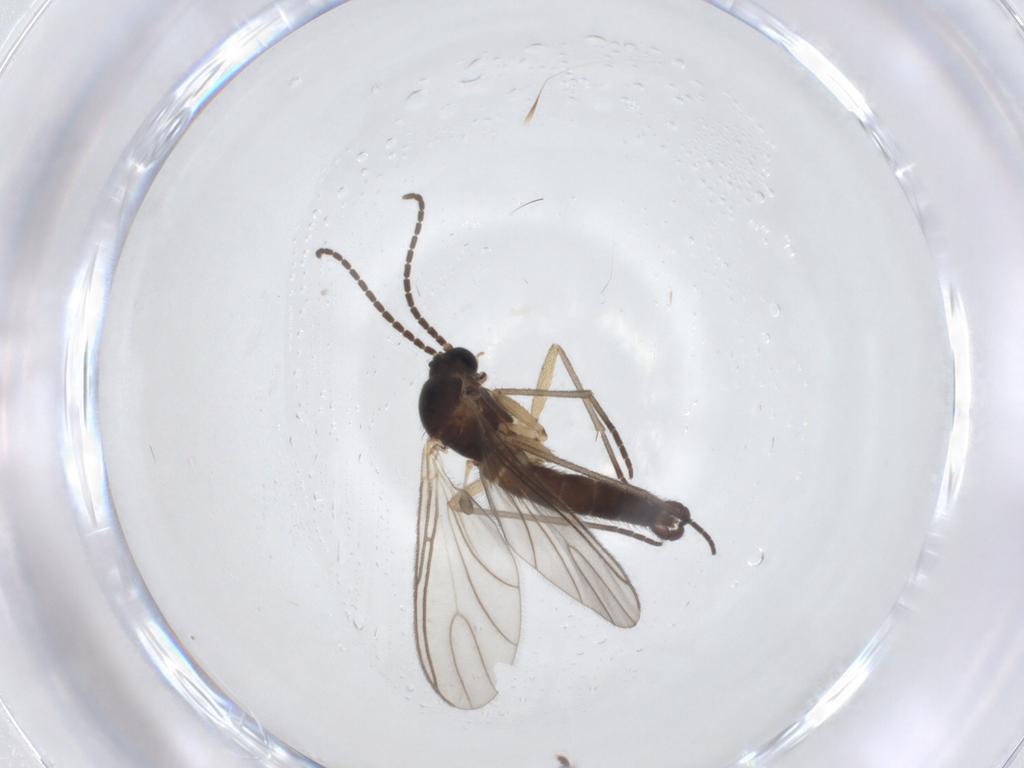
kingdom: Animalia
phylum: Arthropoda
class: Insecta
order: Diptera
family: Sciaridae
